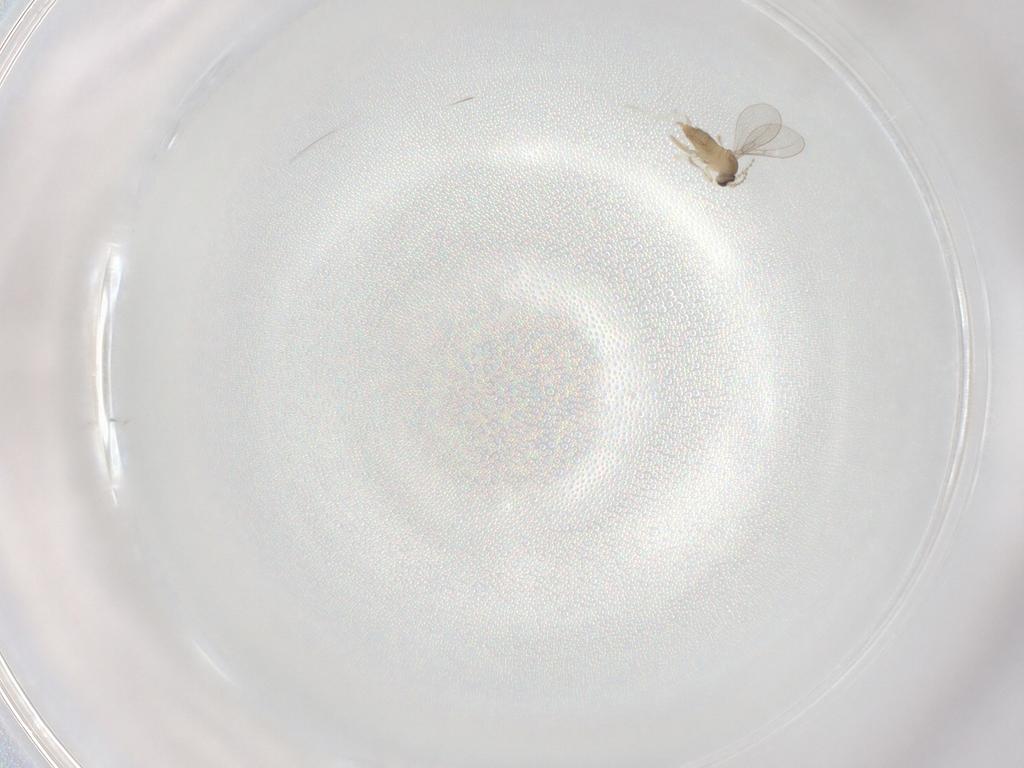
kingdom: Animalia
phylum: Arthropoda
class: Insecta
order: Diptera
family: Cecidomyiidae
